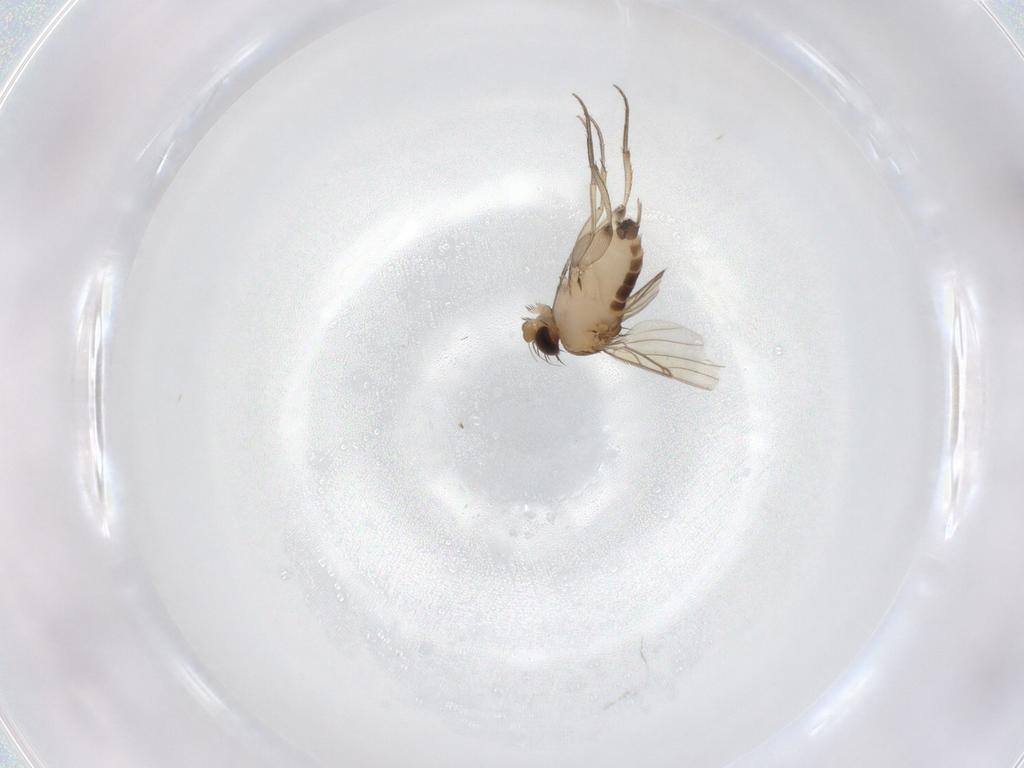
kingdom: Animalia
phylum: Arthropoda
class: Insecta
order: Diptera
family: Phoridae
